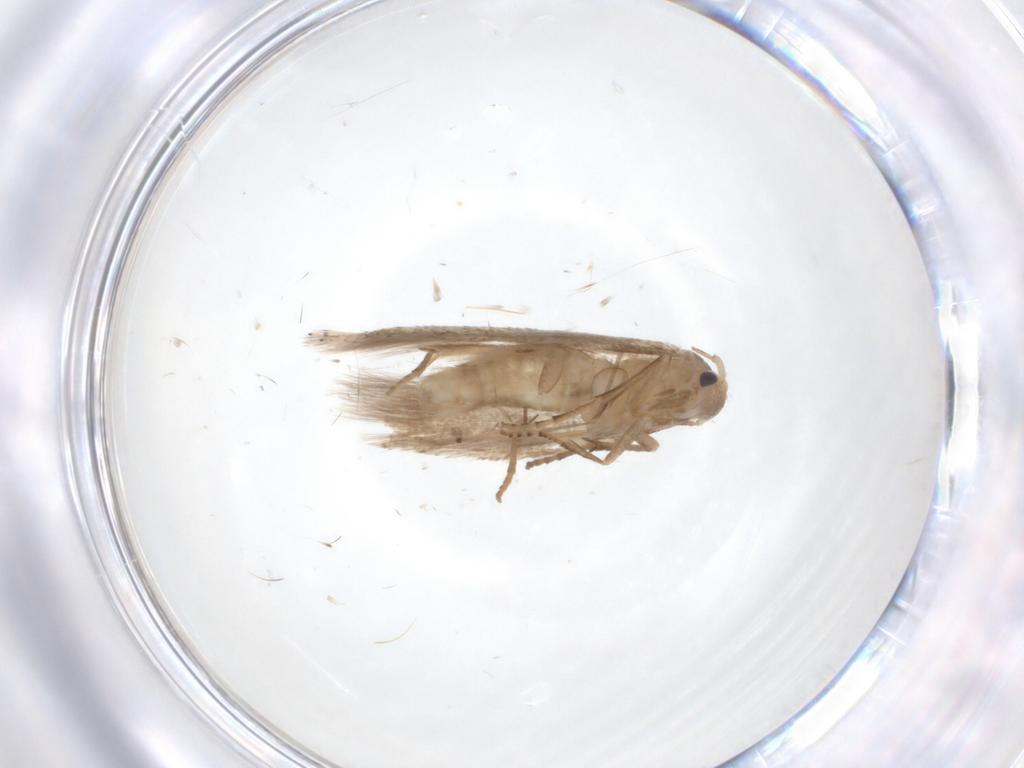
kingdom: Animalia
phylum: Arthropoda
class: Insecta
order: Lepidoptera
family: Bucculatricidae
